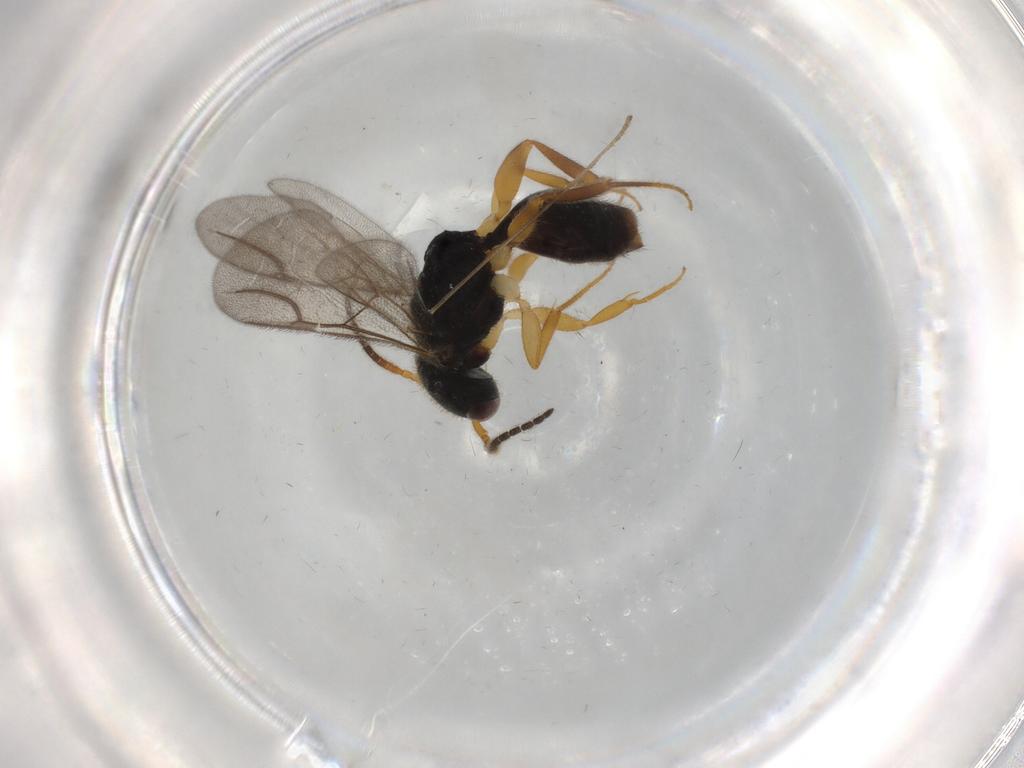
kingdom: Animalia
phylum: Arthropoda
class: Insecta
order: Hymenoptera
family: Bethylidae
